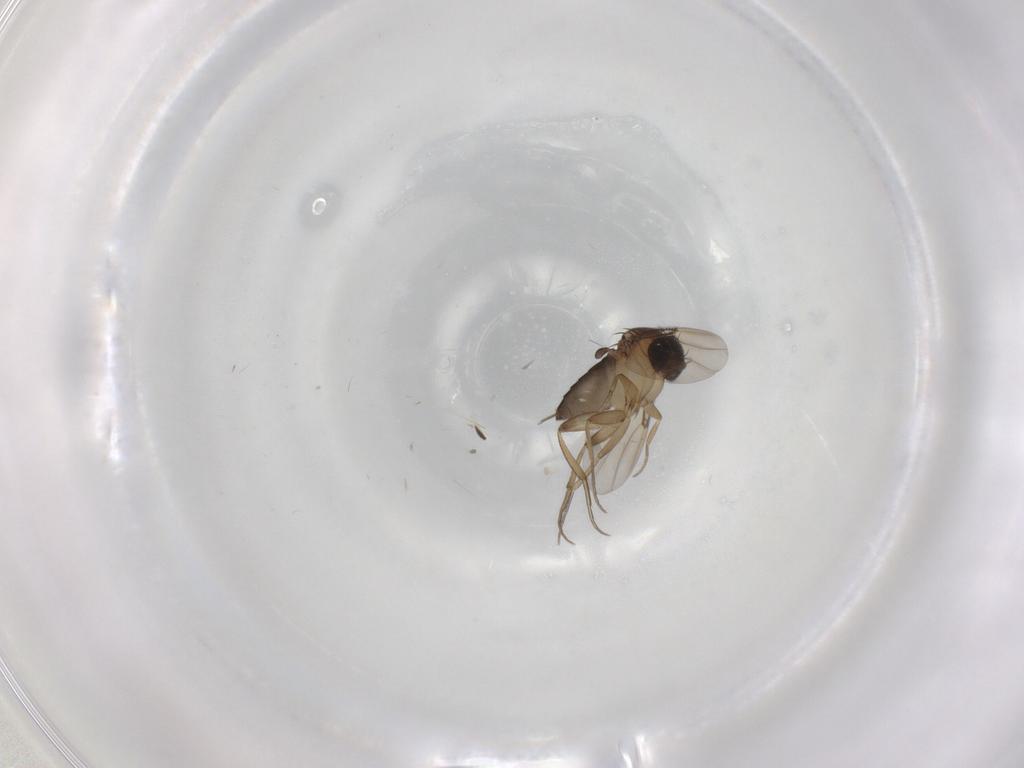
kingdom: Animalia
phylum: Arthropoda
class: Insecta
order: Diptera
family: Phoridae
